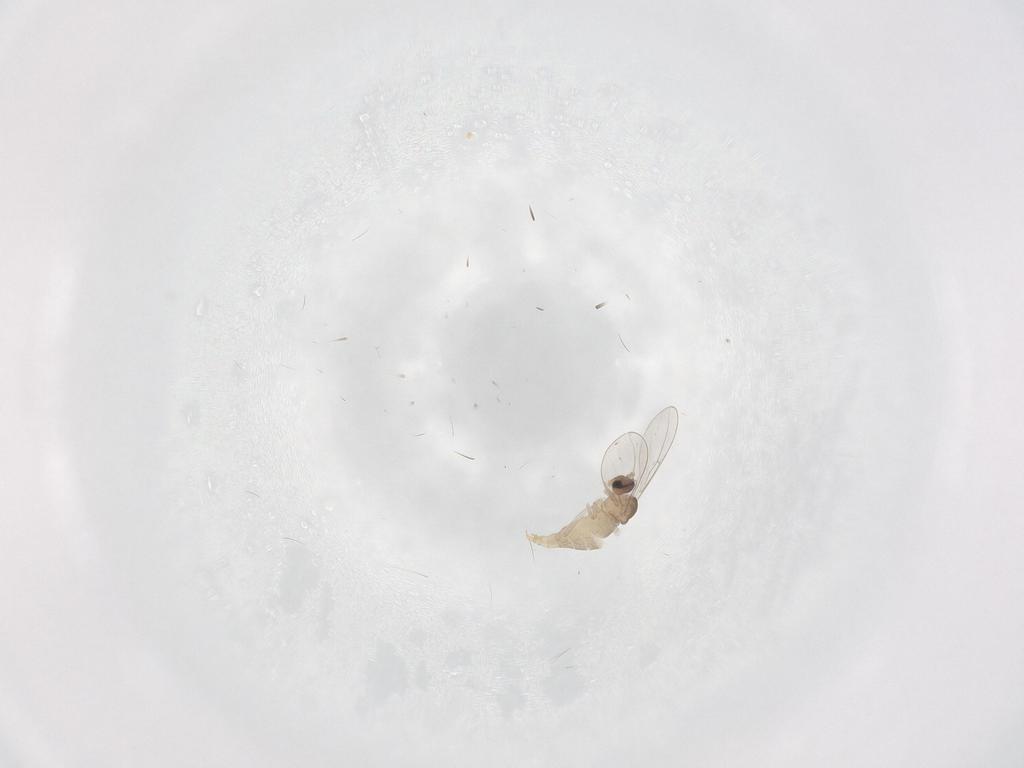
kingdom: Animalia
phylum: Arthropoda
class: Insecta
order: Diptera
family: Cecidomyiidae
